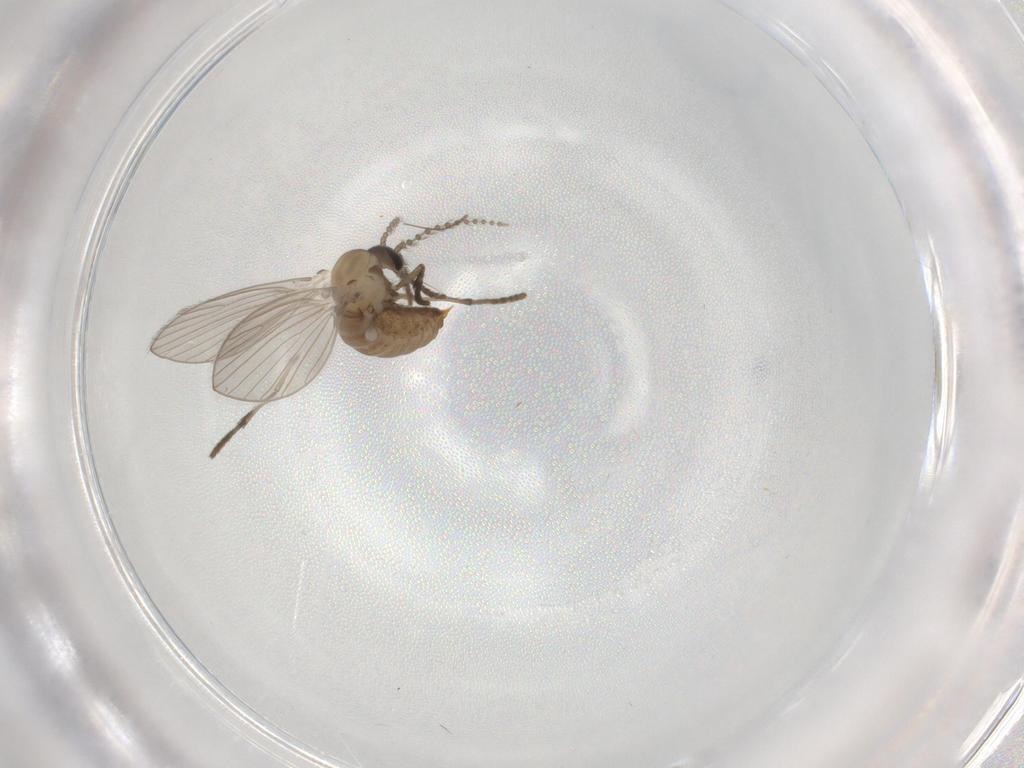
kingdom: Animalia
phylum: Arthropoda
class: Insecta
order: Diptera
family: Psychodidae
